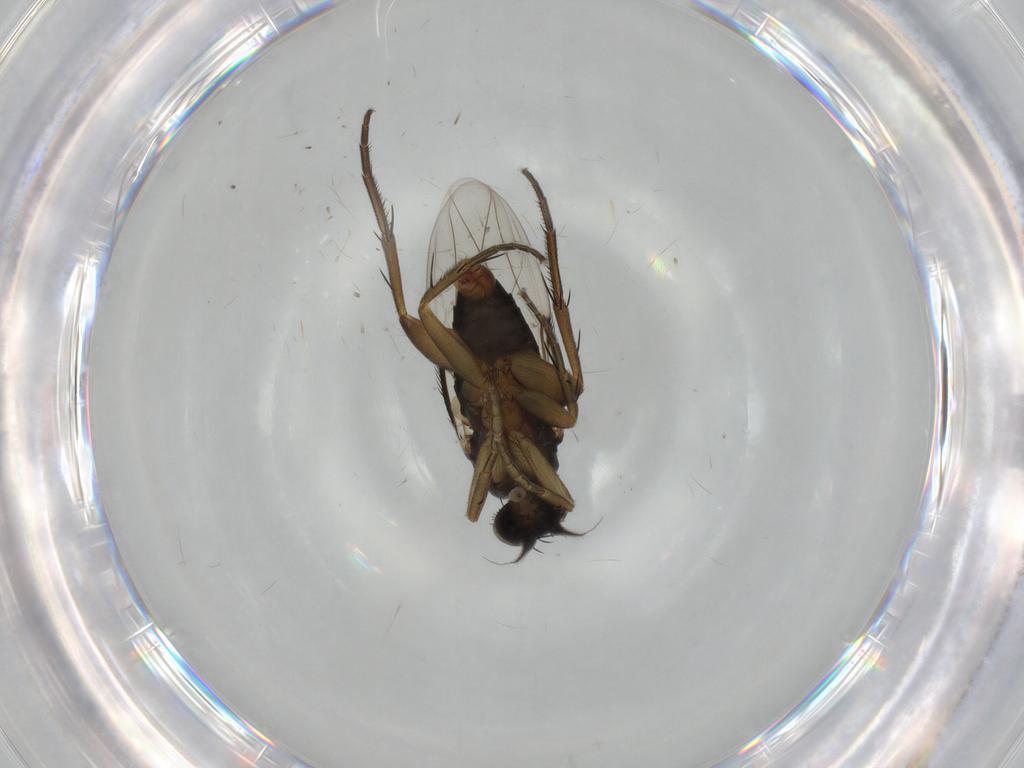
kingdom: Animalia
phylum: Arthropoda
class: Insecta
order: Diptera
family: Phoridae
